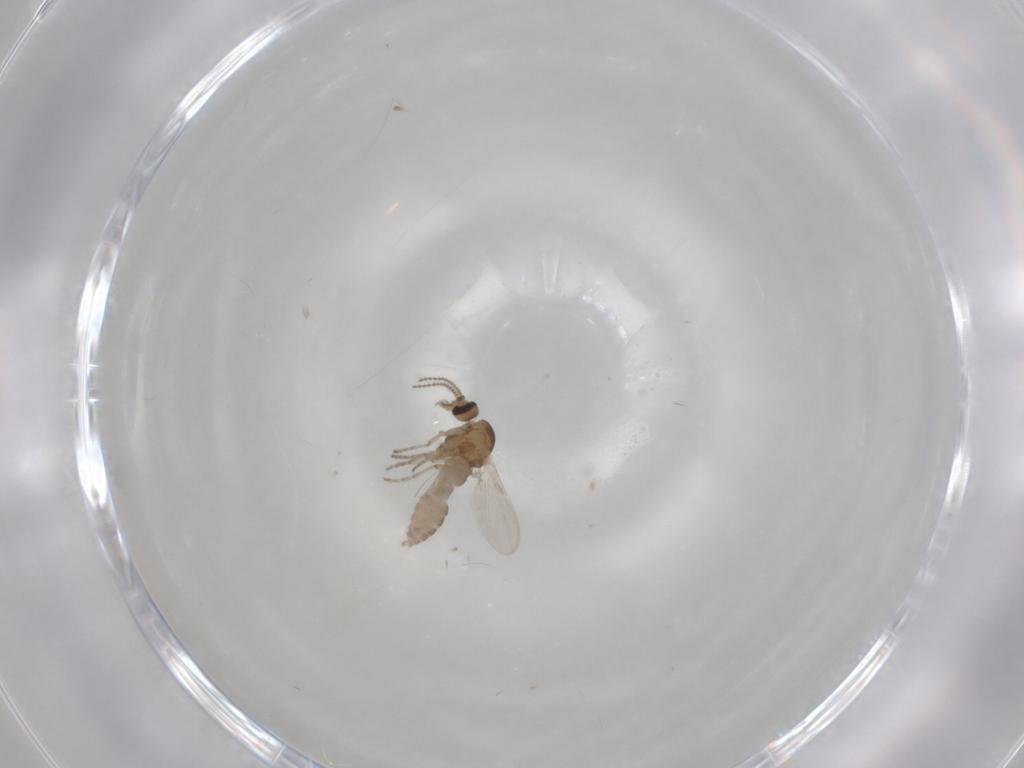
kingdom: Animalia
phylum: Arthropoda
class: Insecta
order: Diptera
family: Ceratopogonidae
